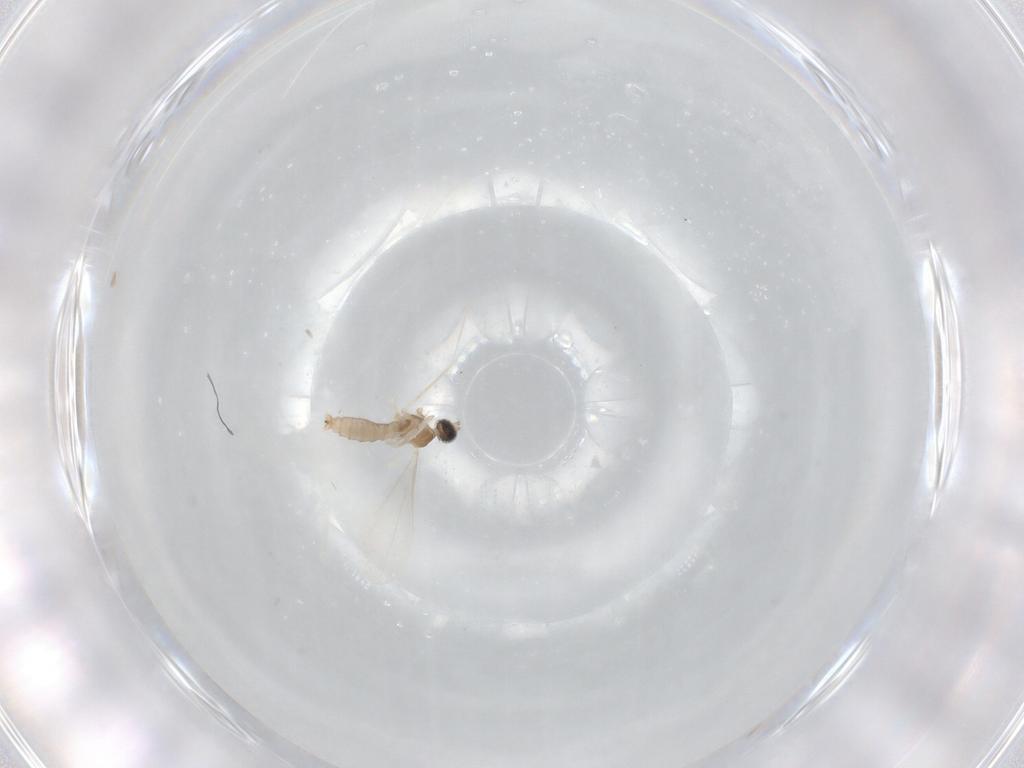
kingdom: Animalia
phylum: Arthropoda
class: Insecta
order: Diptera
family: Cecidomyiidae
